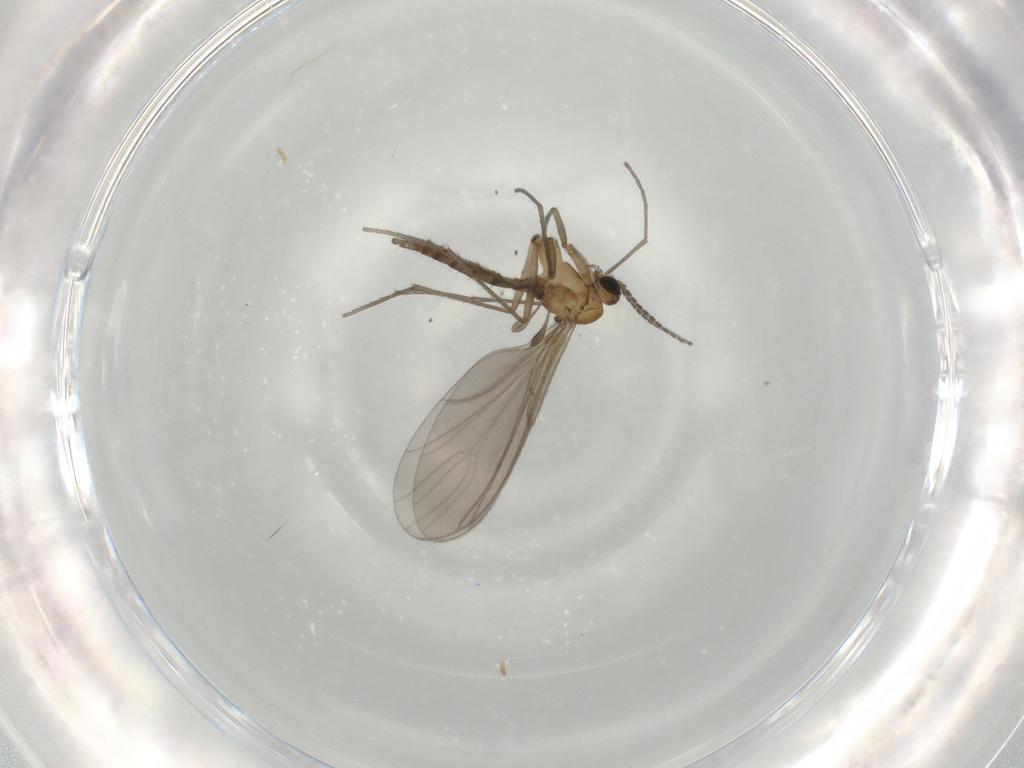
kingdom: Animalia
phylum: Arthropoda
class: Insecta
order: Diptera
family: Sciaridae
